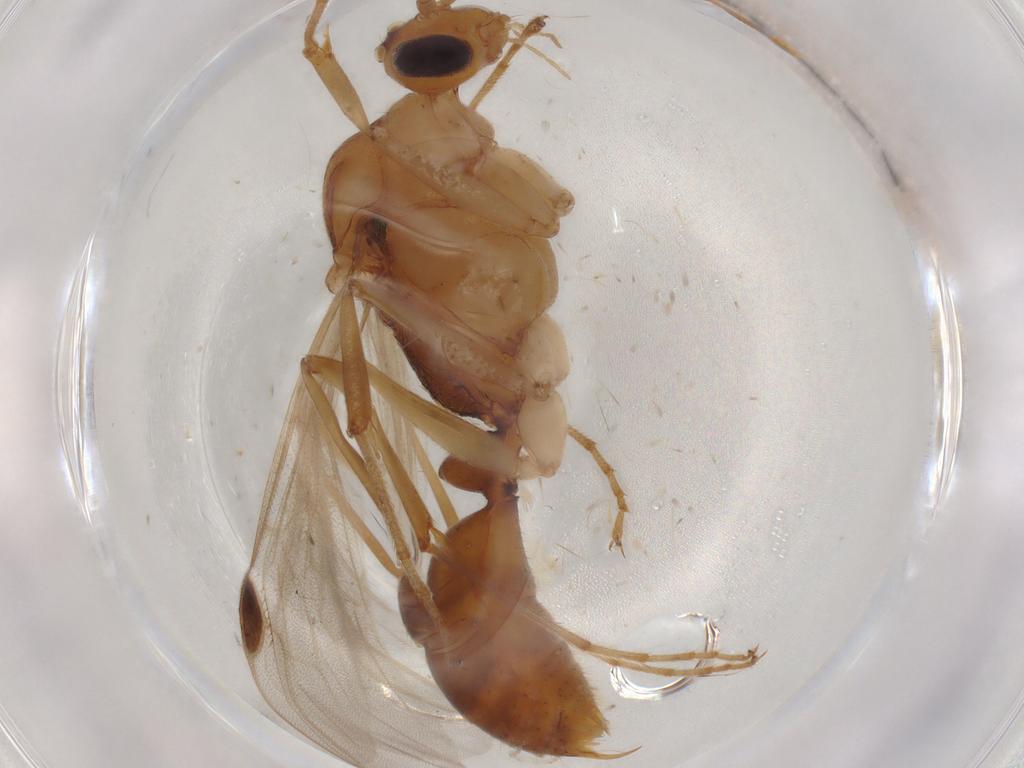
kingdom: Animalia
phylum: Arthropoda
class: Insecta
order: Hymenoptera
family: Formicidae
